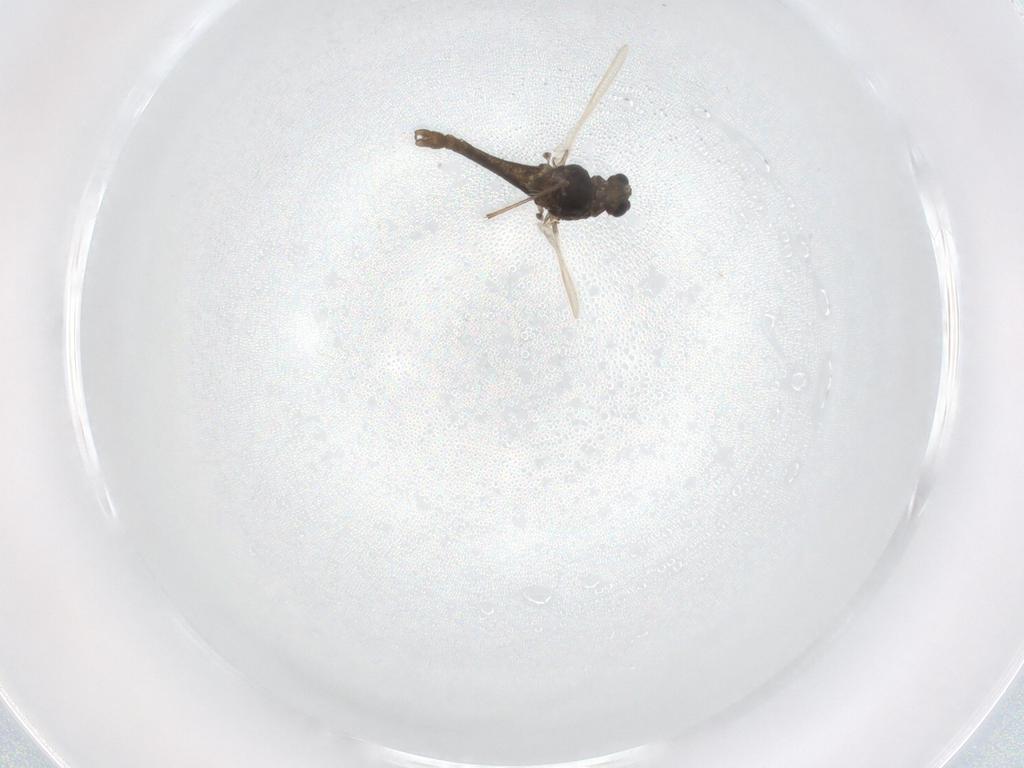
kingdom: Animalia
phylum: Arthropoda
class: Insecta
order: Diptera
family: Chironomidae
